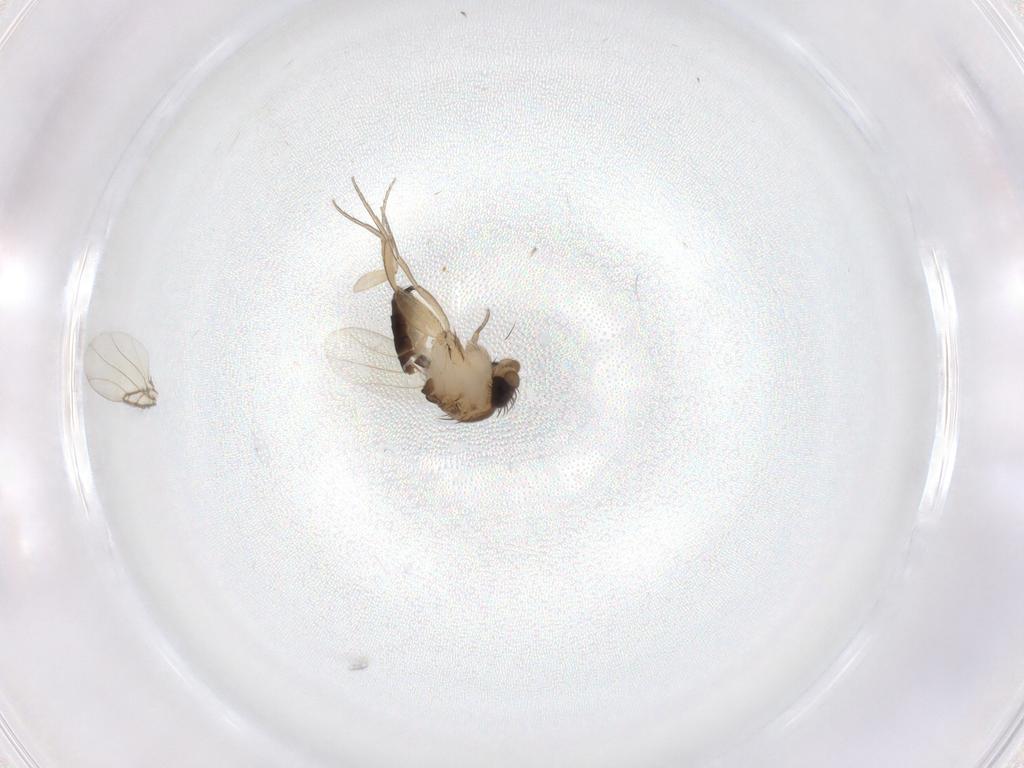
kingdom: Animalia
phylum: Arthropoda
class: Insecta
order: Diptera
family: Phoridae
